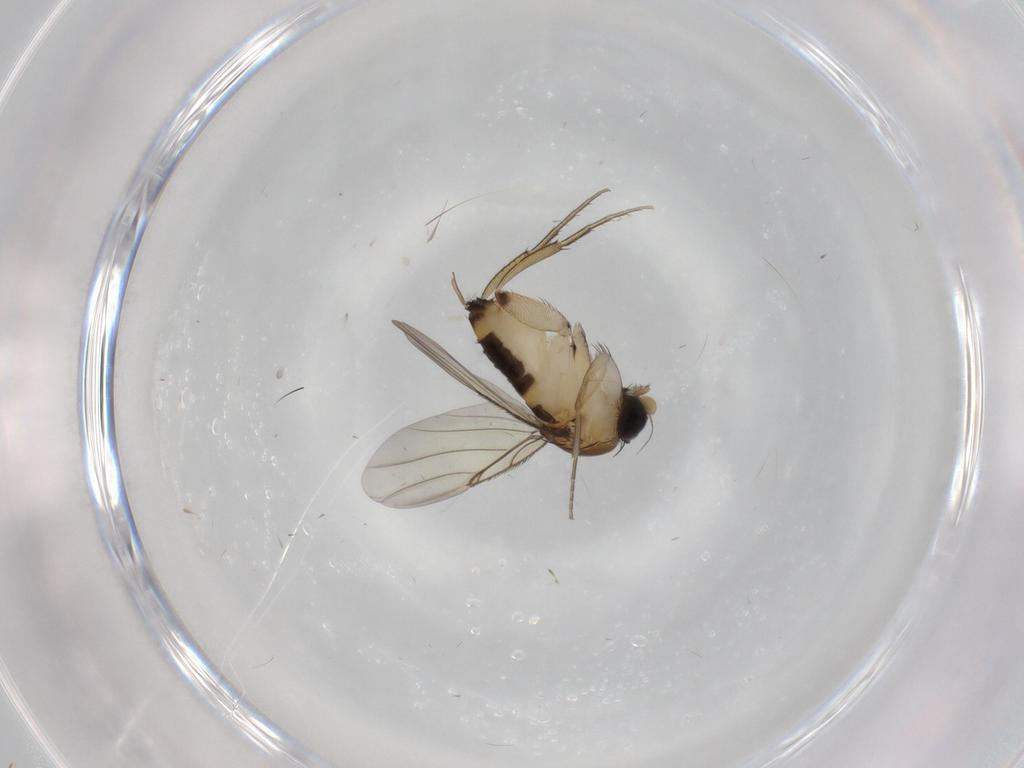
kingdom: Animalia
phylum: Arthropoda
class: Insecta
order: Diptera
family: Phoridae
